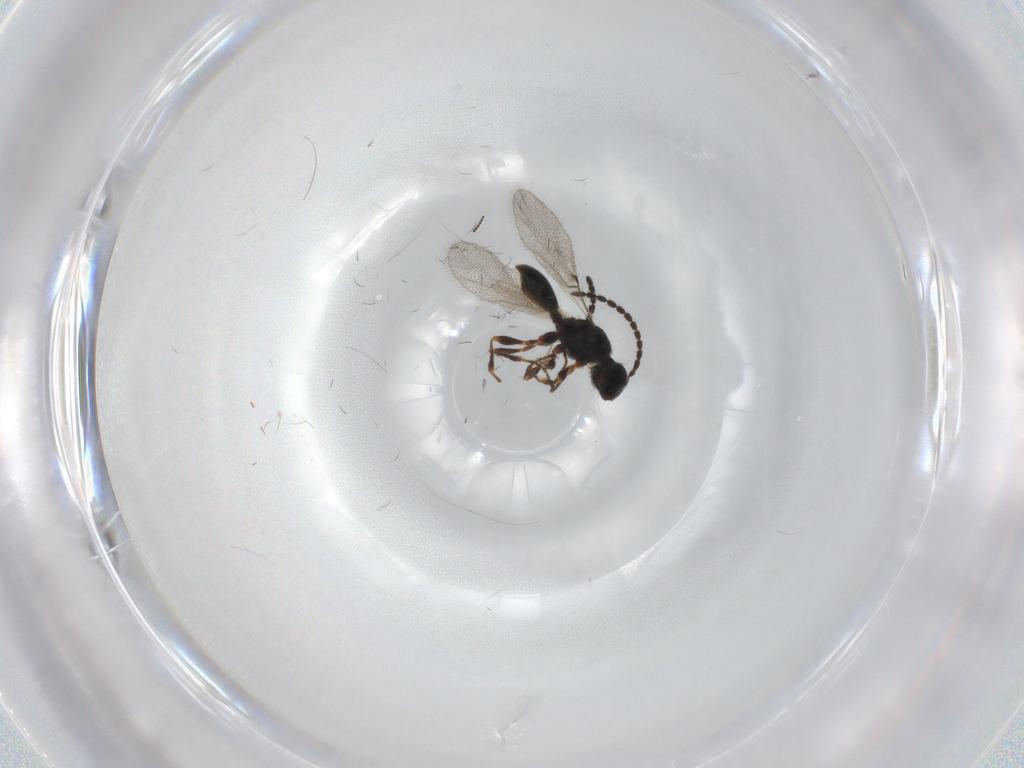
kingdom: Animalia
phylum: Arthropoda
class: Insecta
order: Hymenoptera
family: Diapriidae
